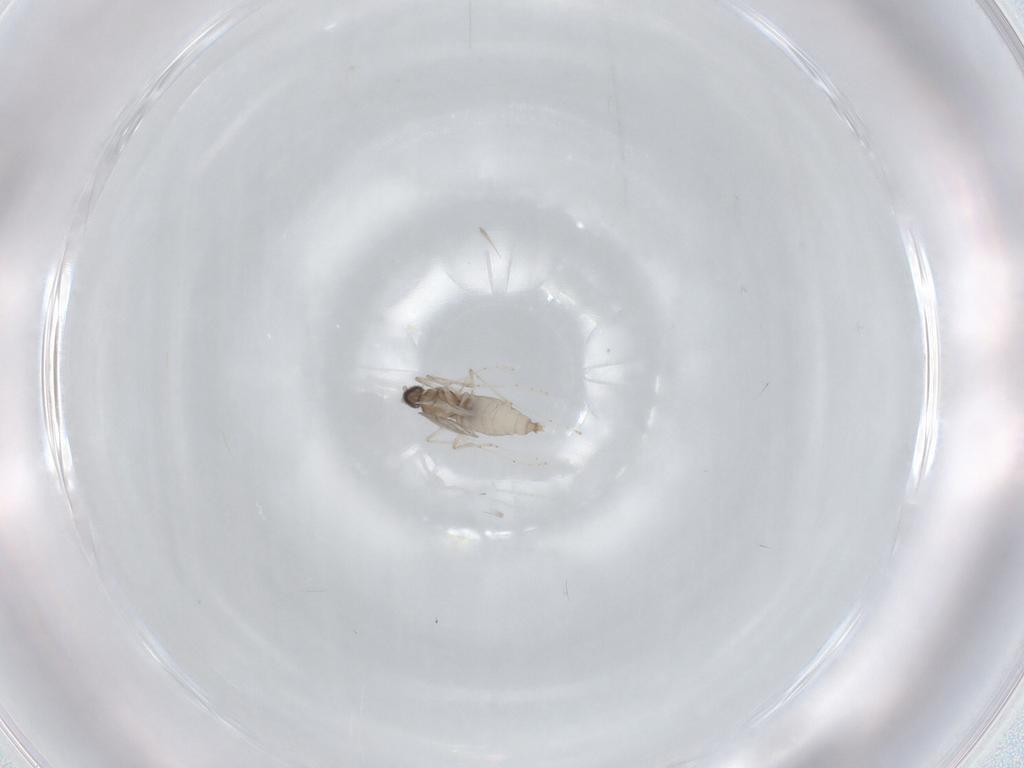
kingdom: Animalia
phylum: Arthropoda
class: Insecta
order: Diptera
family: Cecidomyiidae
